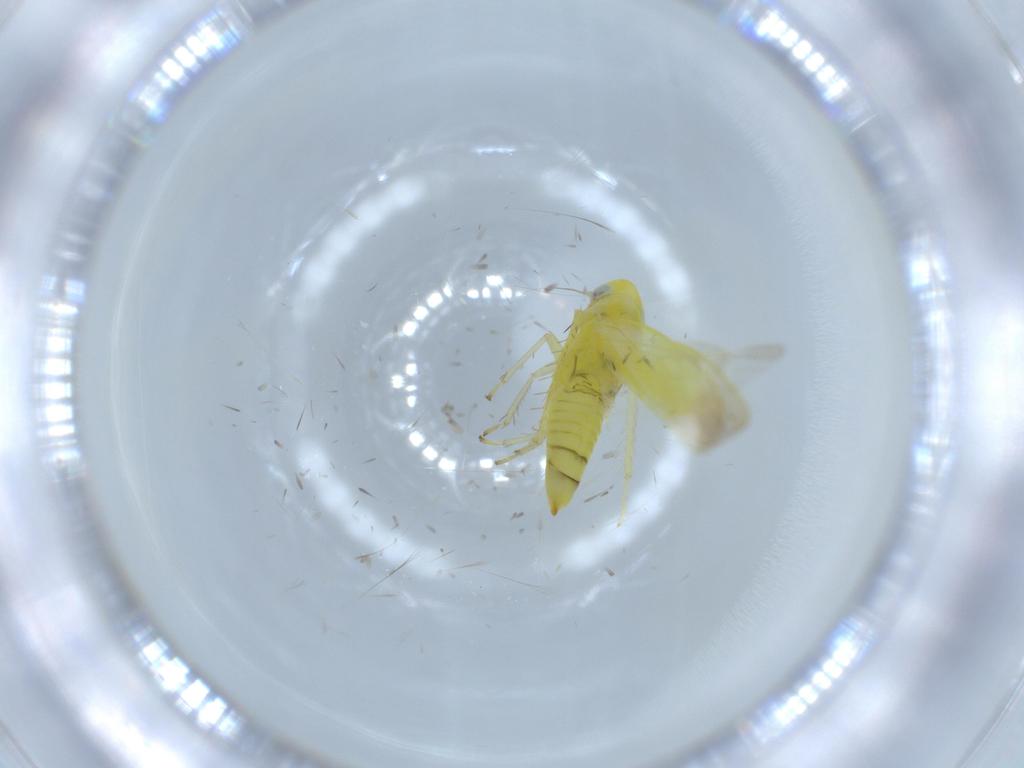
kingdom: Animalia
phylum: Arthropoda
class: Insecta
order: Hemiptera
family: Cicadellidae
